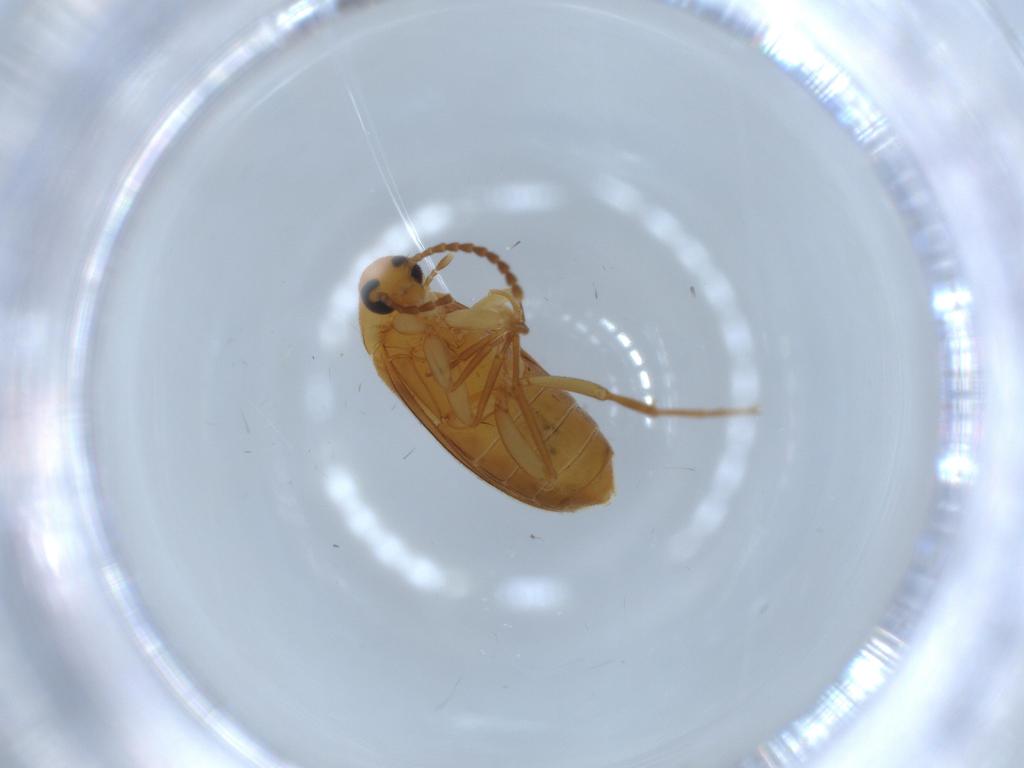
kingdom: Animalia
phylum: Arthropoda
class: Insecta
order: Coleoptera
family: Scraptiidae
